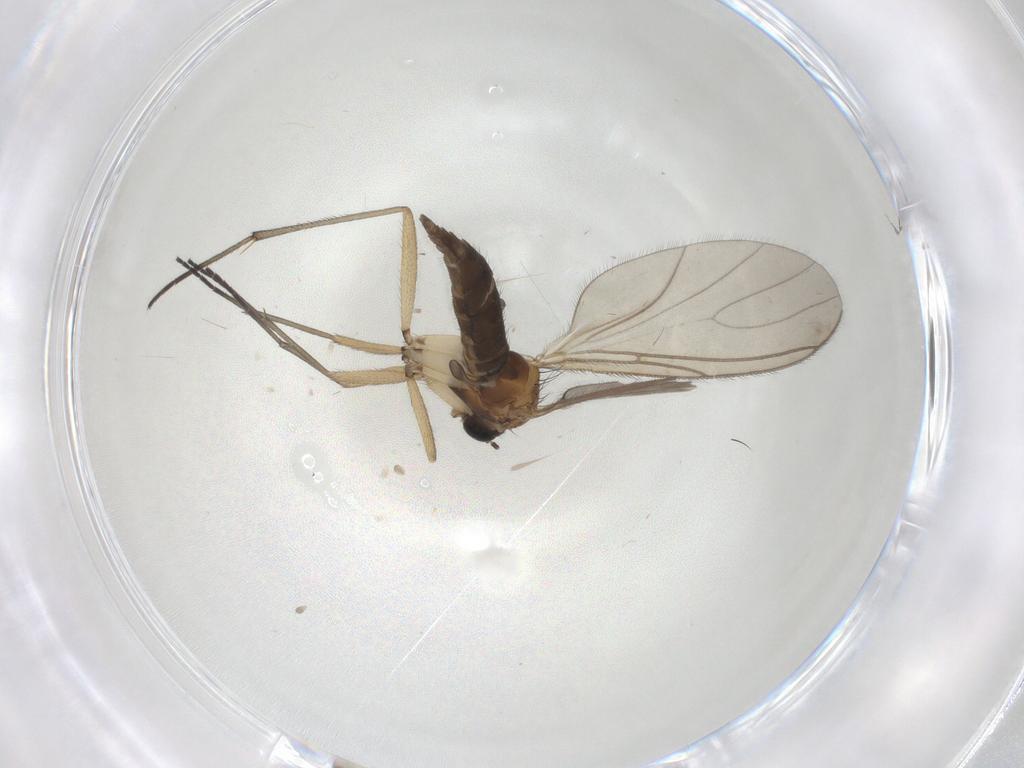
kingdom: Animalia
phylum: Arthropoda
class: Insecta
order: Diptera
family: Sciaridae
